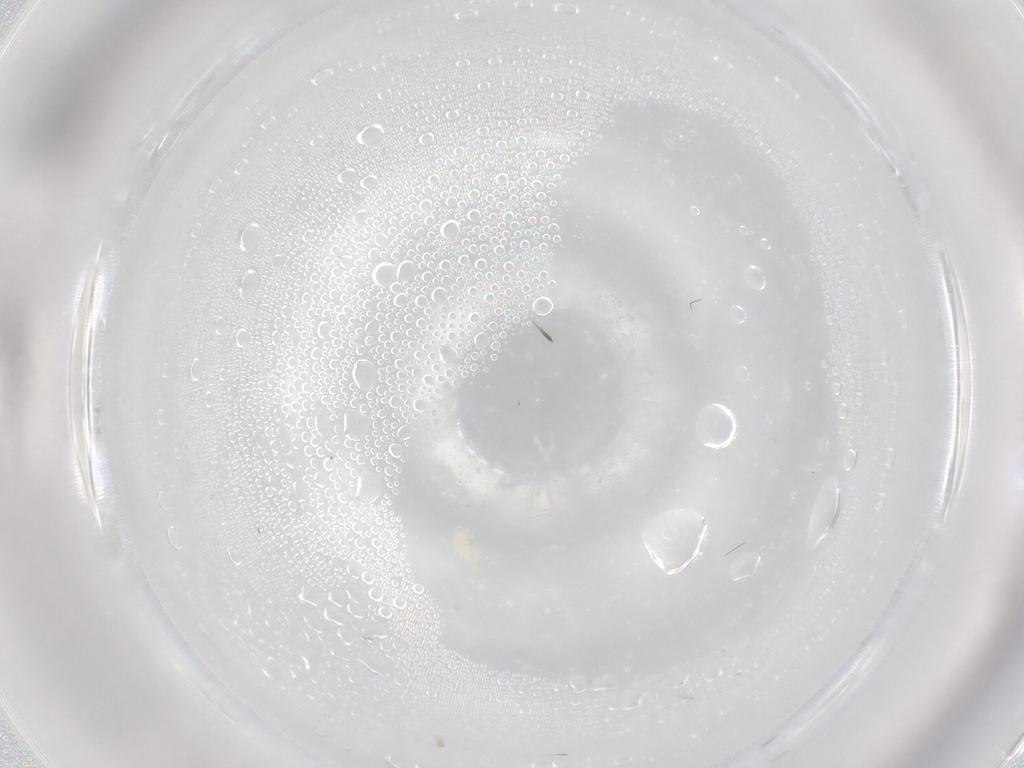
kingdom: Animalia
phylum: Arthropoda
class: Arachnida
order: Trombidiformes
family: Cunaxidae
